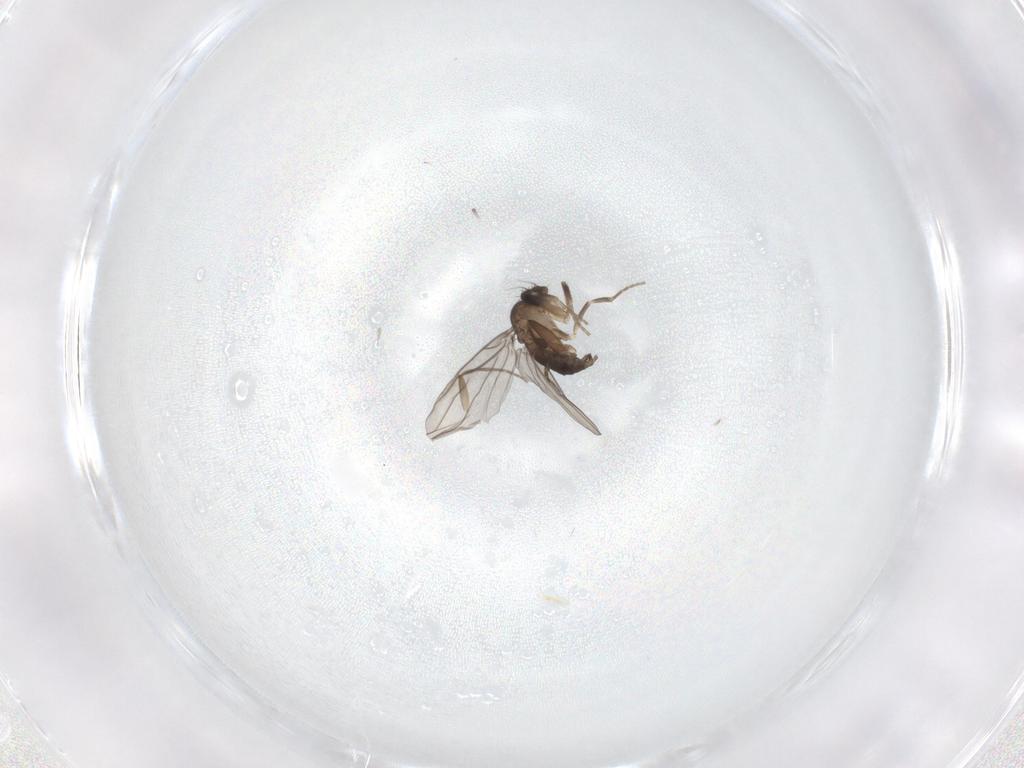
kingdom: Animalia
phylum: Arthropoda
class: Insecta
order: Diptera
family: Phoridae
